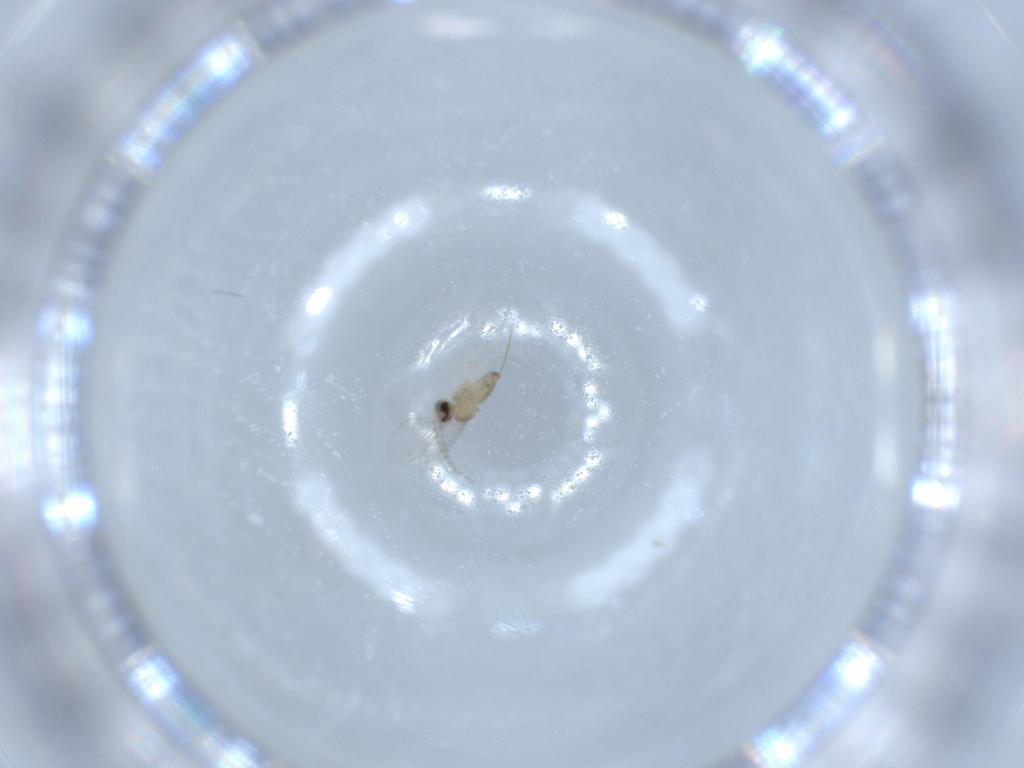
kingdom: Animalia
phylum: Arthropoda
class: Insecta
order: Diptera
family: Cecidomyiidae
